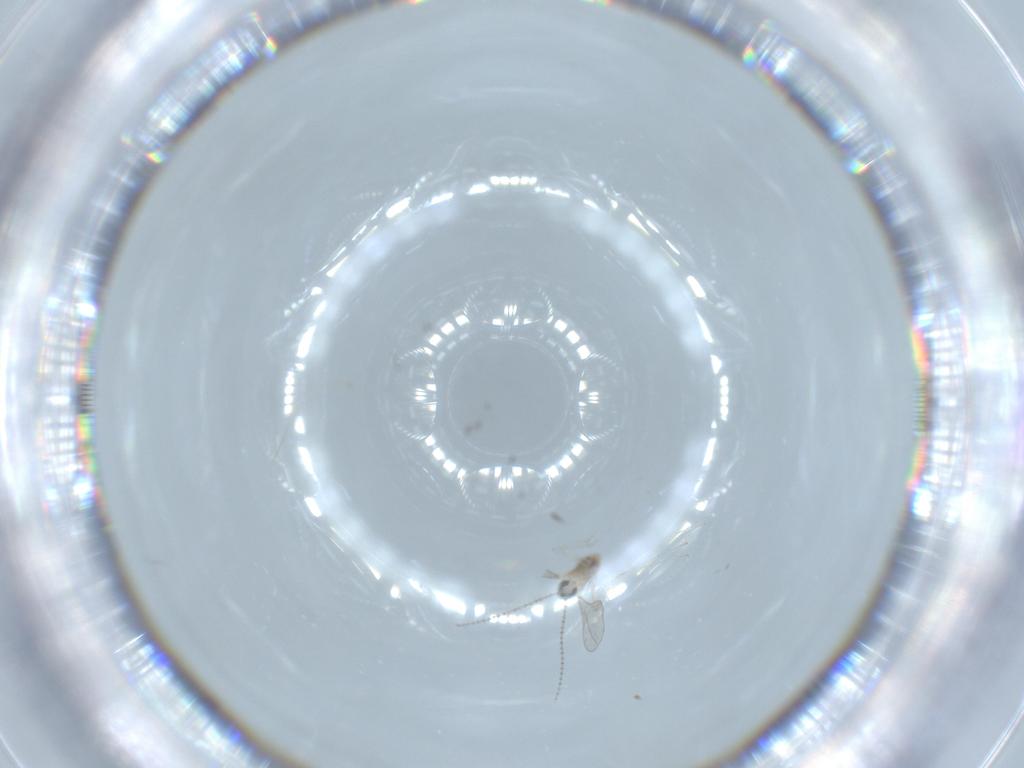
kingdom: Animalia
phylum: Arthropoda
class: Insecta
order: Diptera
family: Cecidomyiidae
